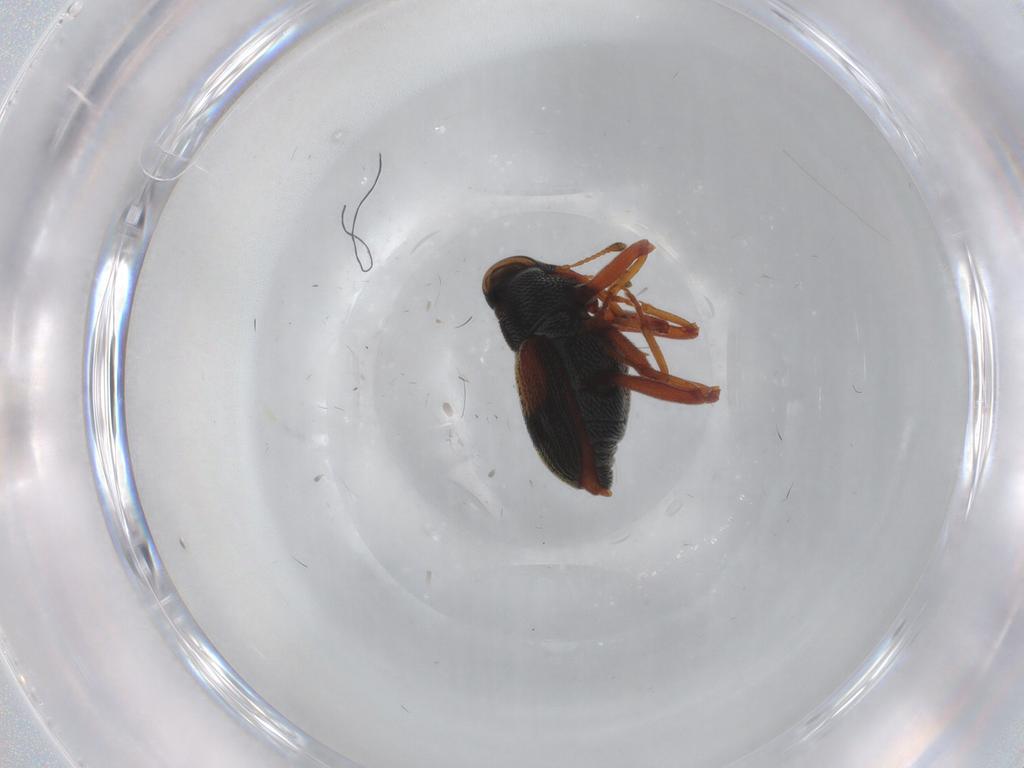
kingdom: Animalia
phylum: Arthropoda
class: Insecta
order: Coleoptera
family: Curculionidae
